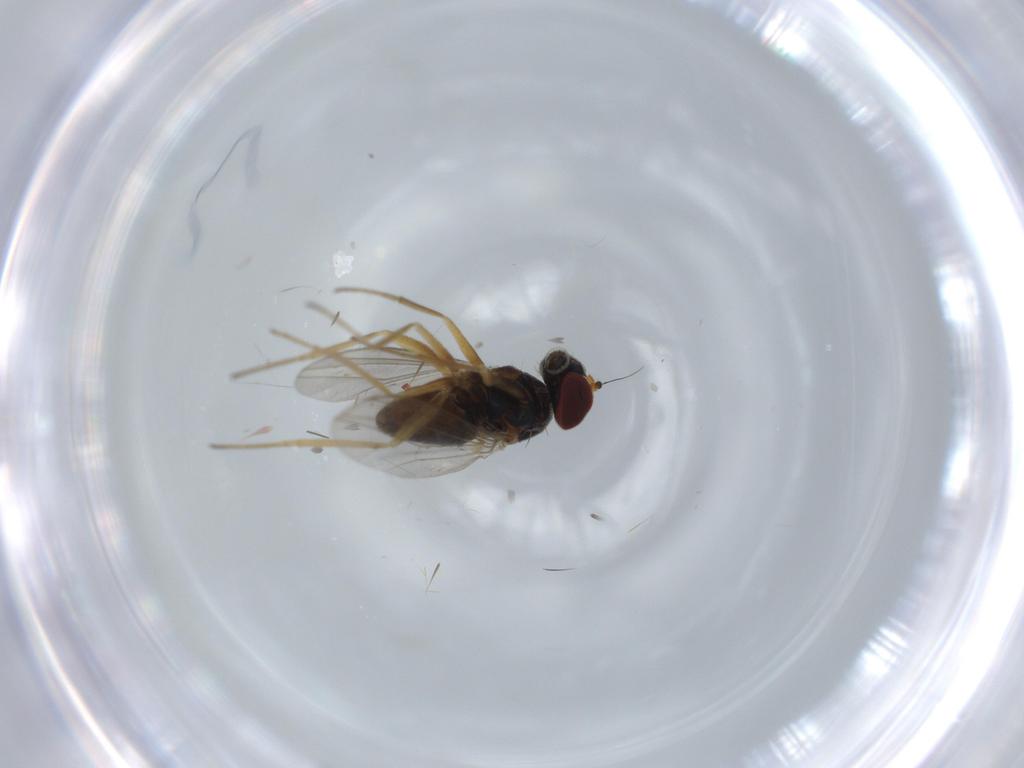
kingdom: Animalia
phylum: Arthropoda
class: Insecta
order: Diptera
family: Dolichopodidae
